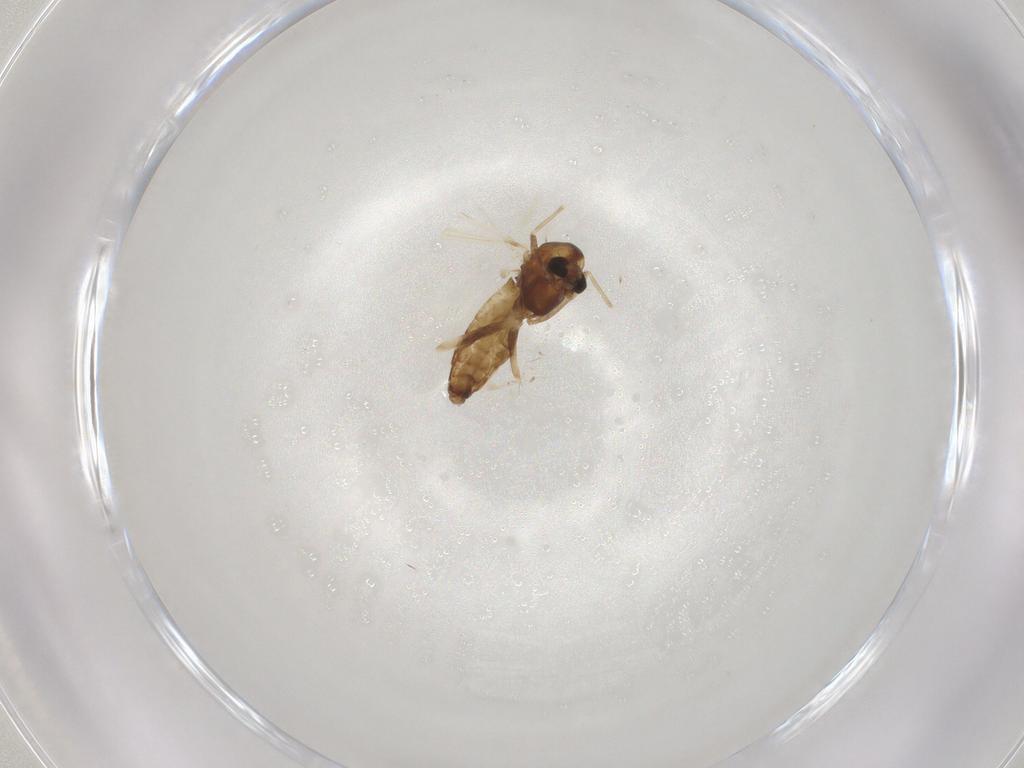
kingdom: Animalia
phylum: Arthropoda
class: Insecta
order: Diptera
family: Chironomidae
